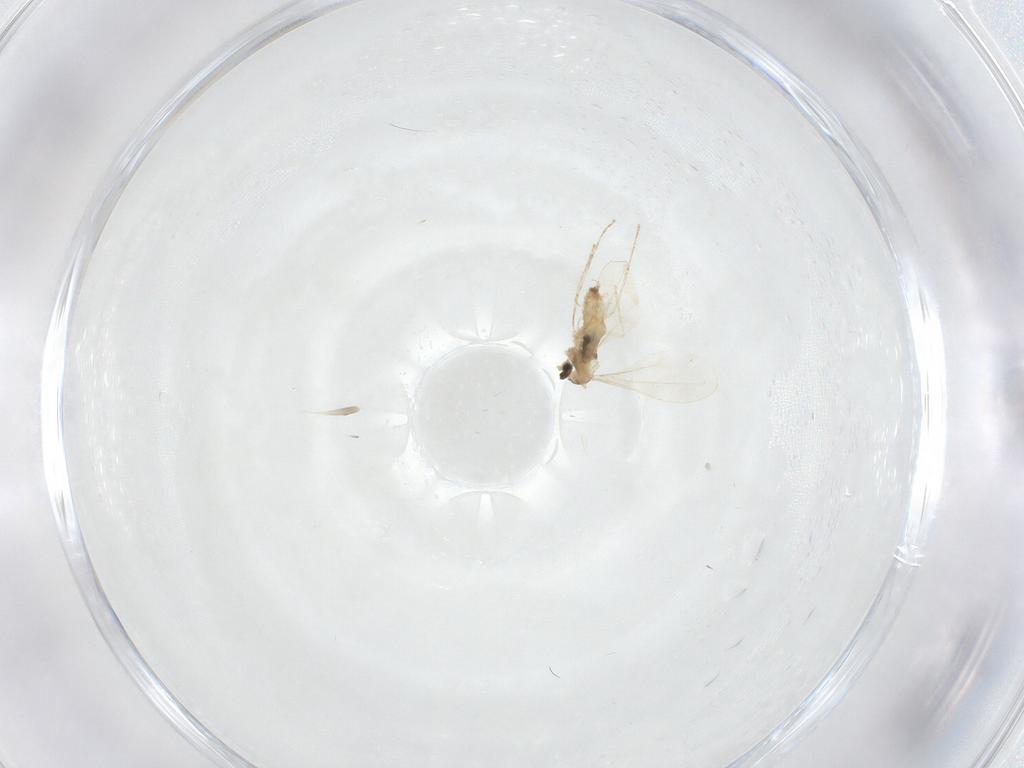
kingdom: Animalia
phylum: Arthropoda
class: Insecta
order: Diptera
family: Cecidomyiidae
